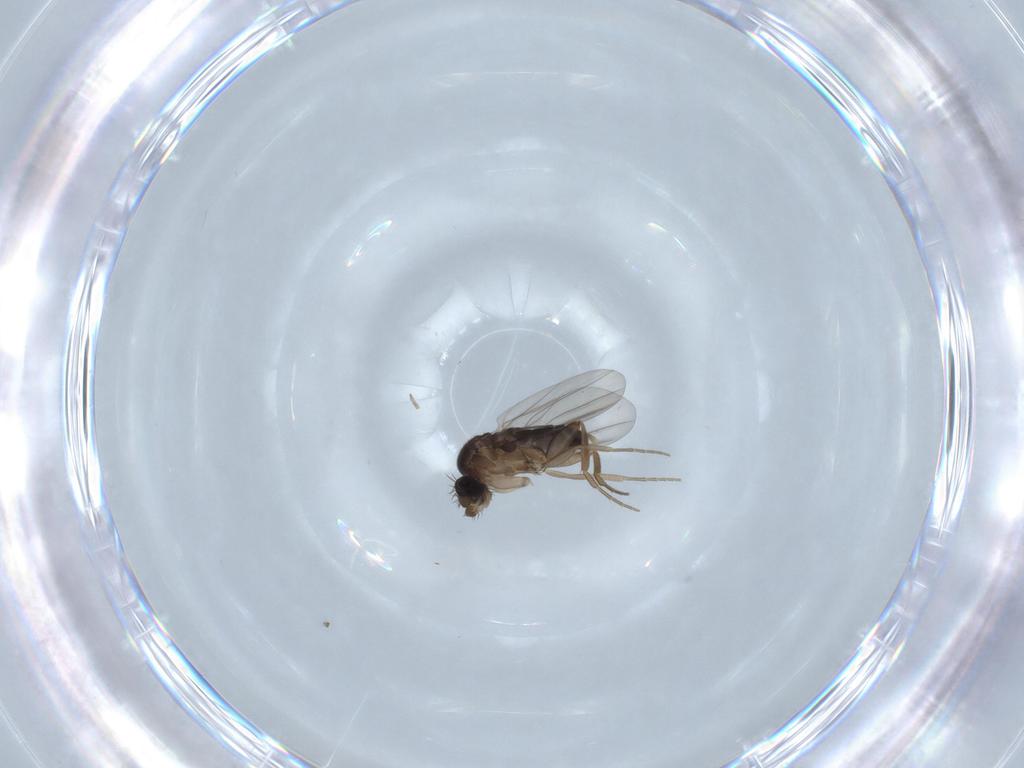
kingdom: Animalia
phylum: Arthropoda
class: Insecta
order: Diptera
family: Phoridae
